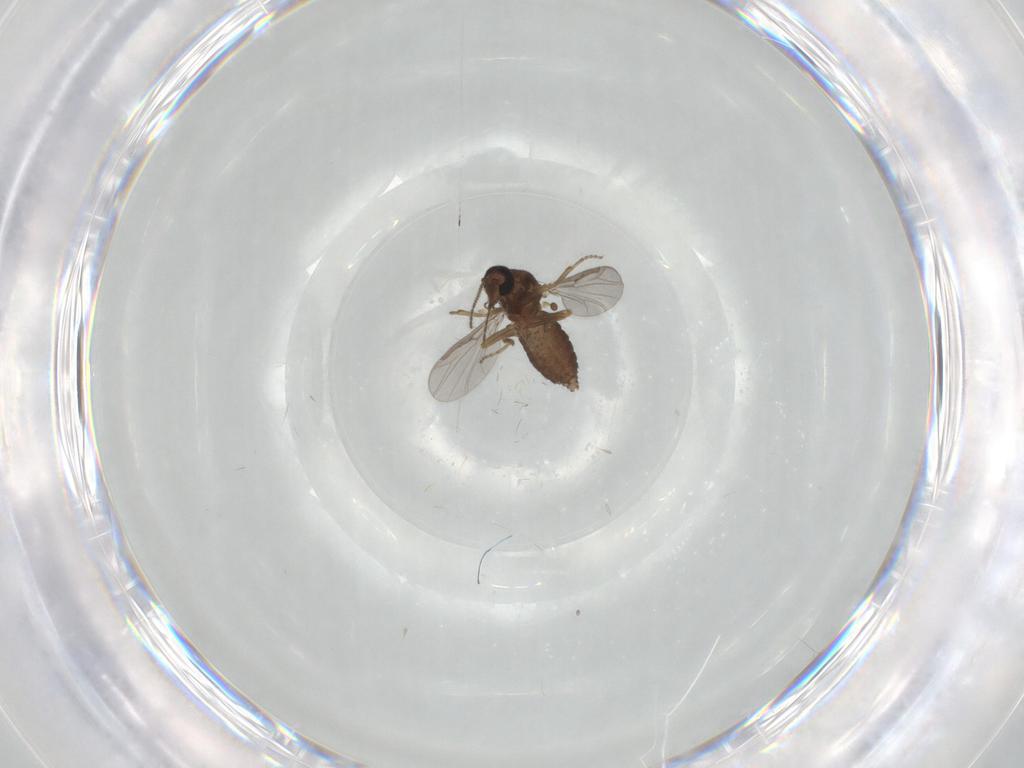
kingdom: Animalia
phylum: Arthropoda
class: Insecta
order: Diptera
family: Ceratopogonidae
